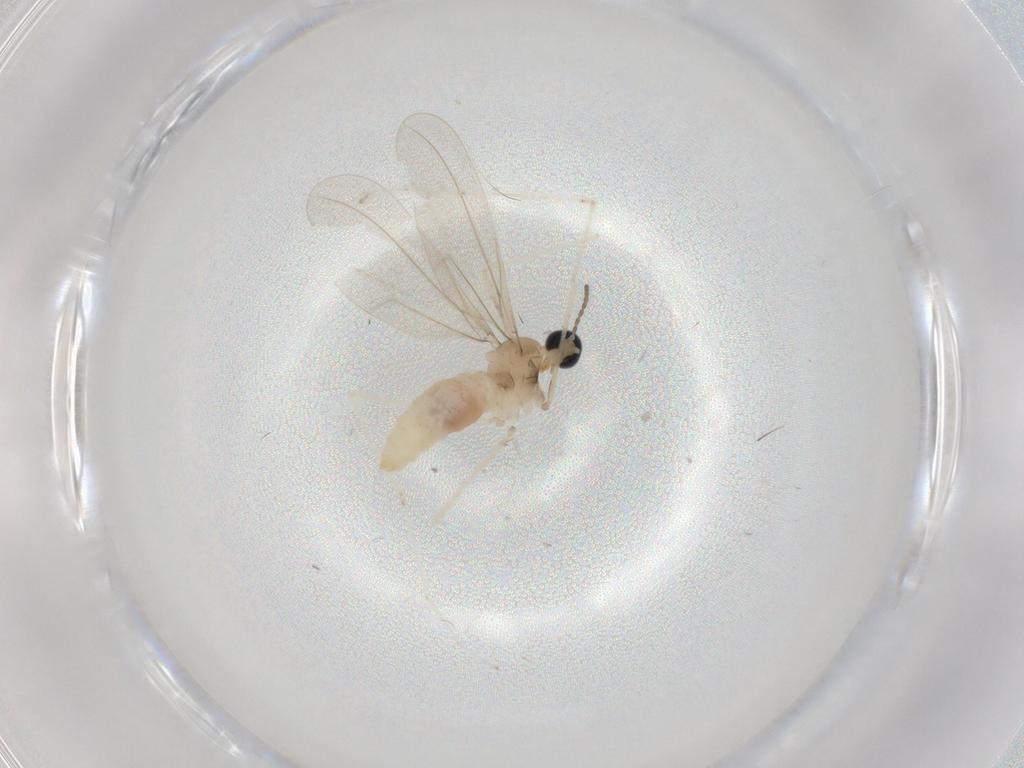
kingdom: Animalia
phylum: Arthropoda
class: Insecta
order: Diptera
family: Cecidomyiidae
